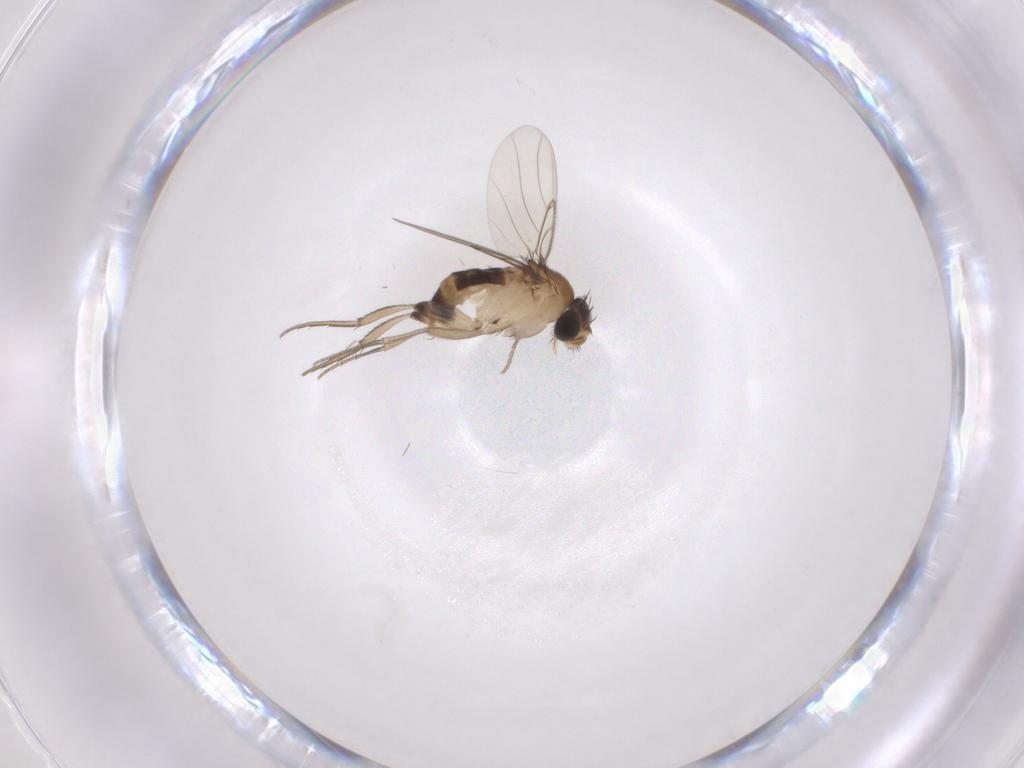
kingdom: Animalia
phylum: Arthropoda
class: Insecta
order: Diptera
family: Phoridae
